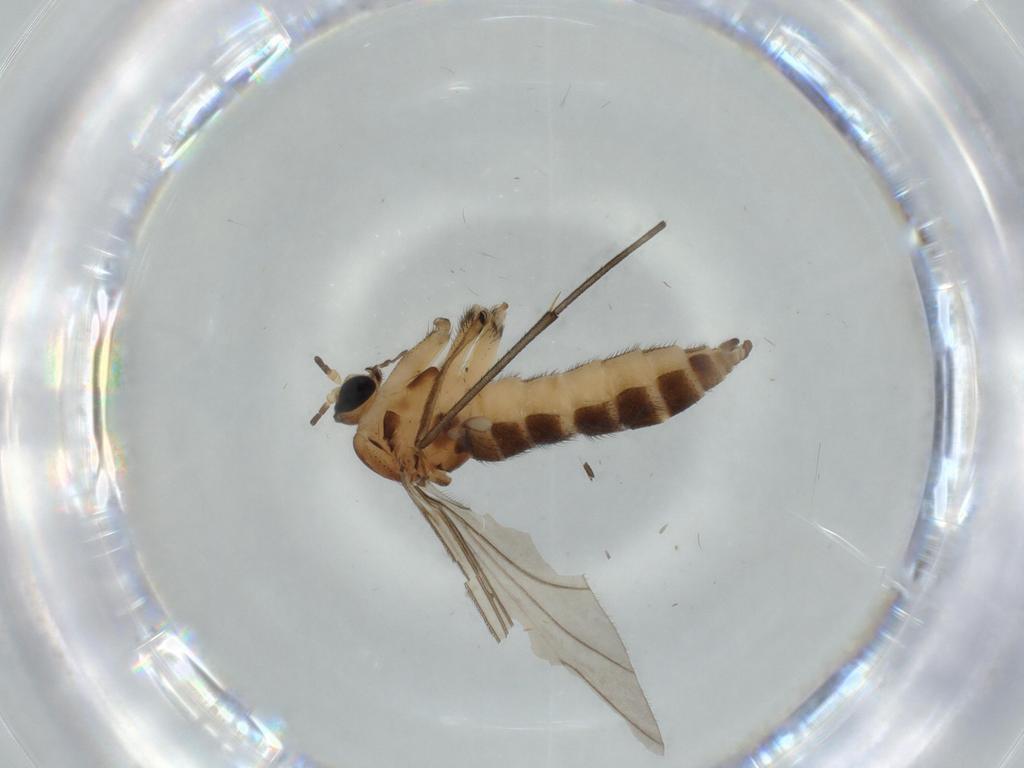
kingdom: Animalia
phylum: Arthropoda
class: Insecta
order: Diptera
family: Sciaridae
